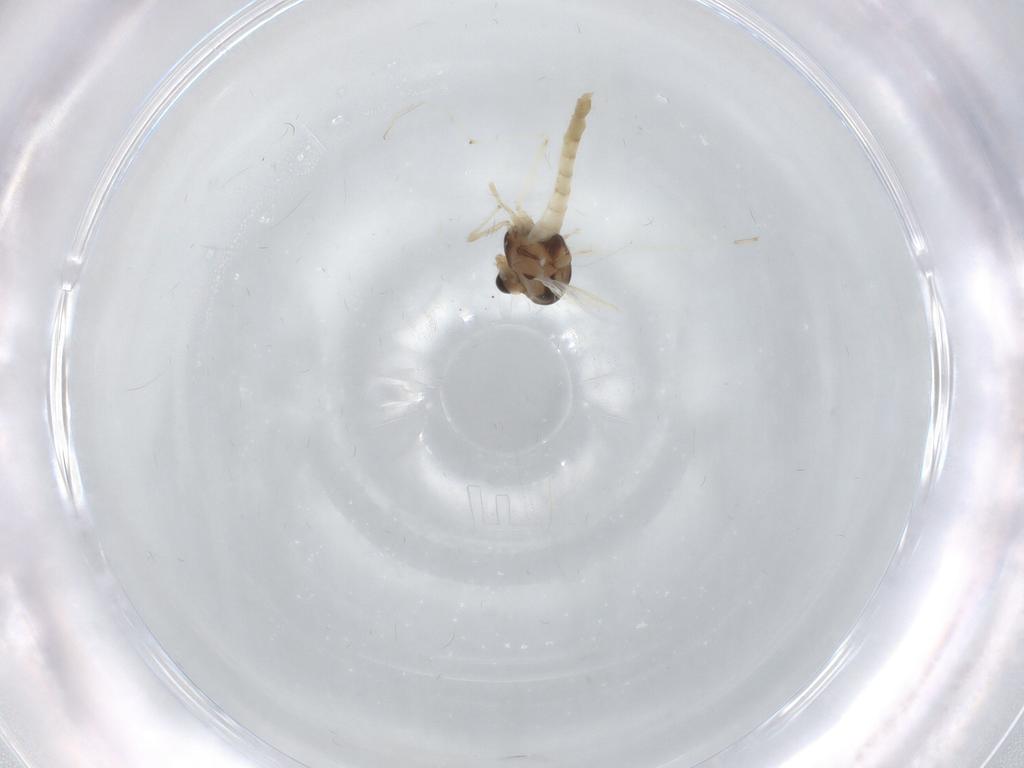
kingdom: Animalia
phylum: Arthropoda
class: Insecta
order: Diptera
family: Chironomidae
